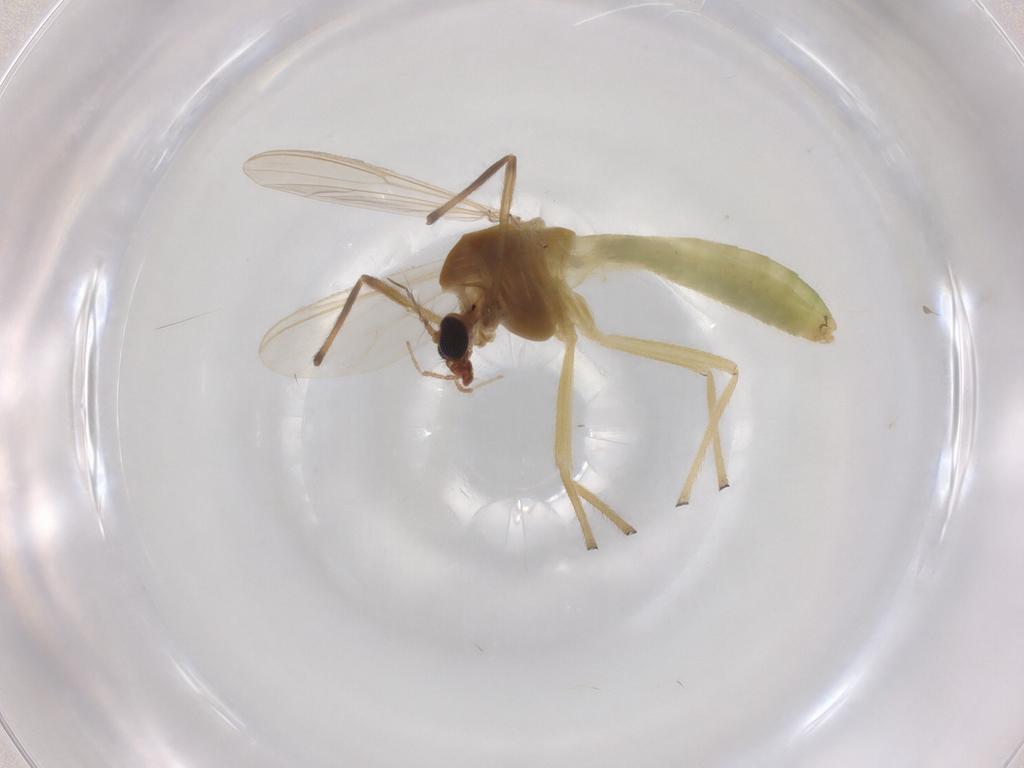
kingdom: Animalia
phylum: Arthropoda
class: Insecta
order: Diptera
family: Chironomidae
